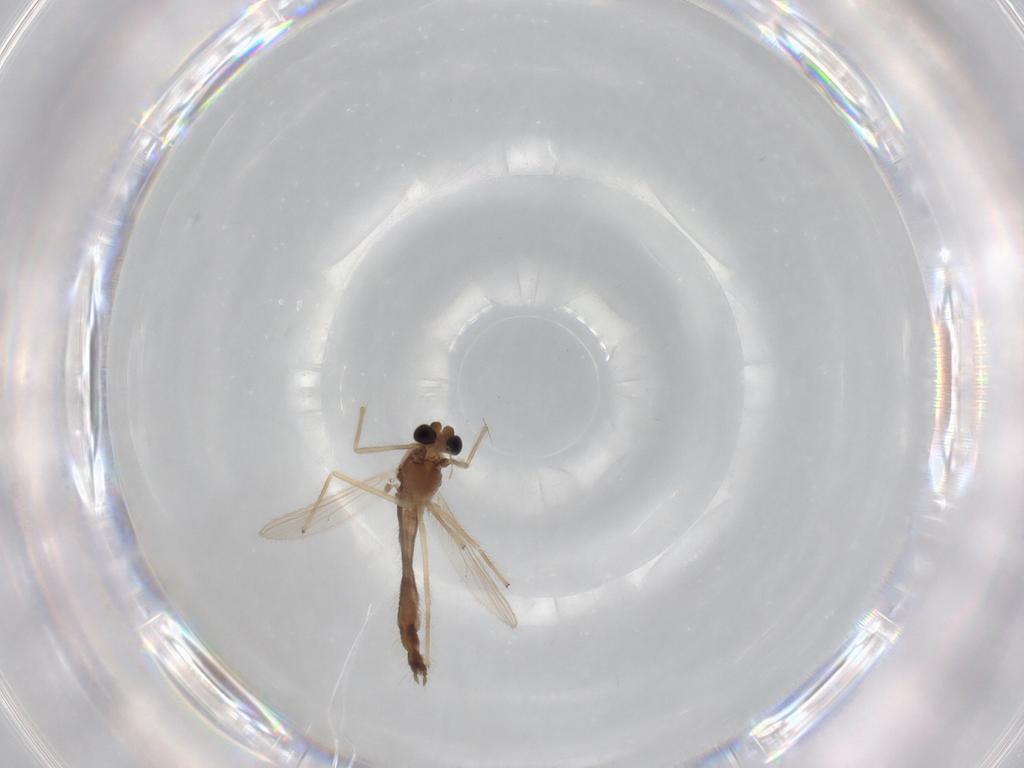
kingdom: Animalia
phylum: Arthropoda
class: Insecta
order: Diptera
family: Chironomidae
